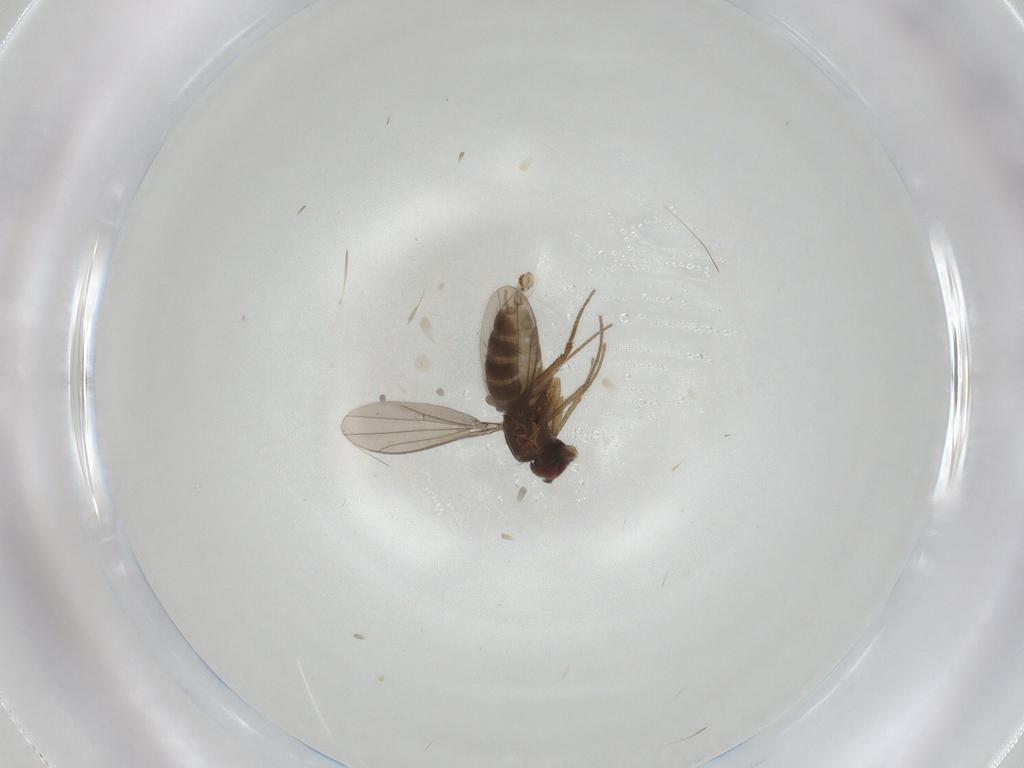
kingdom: Animalia
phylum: Arthropoda
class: Insecta
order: Diptera
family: Dolichopodidae
